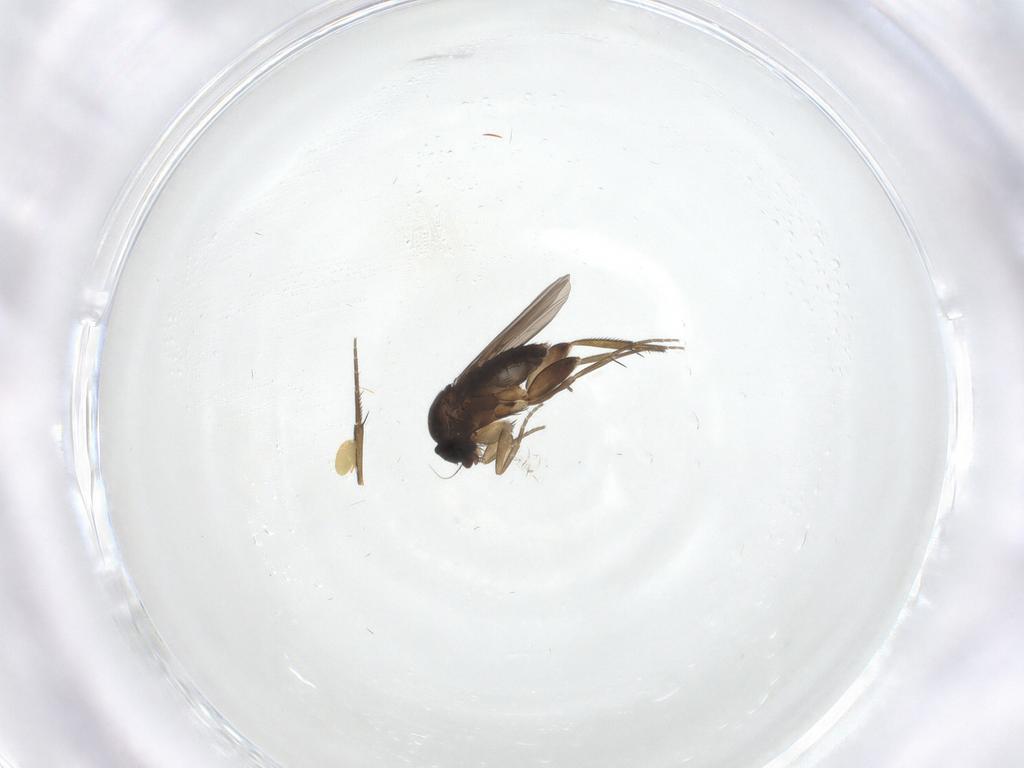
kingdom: Animalia
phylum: Arthropoda
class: Insecta
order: Diptera
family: Phoridae
